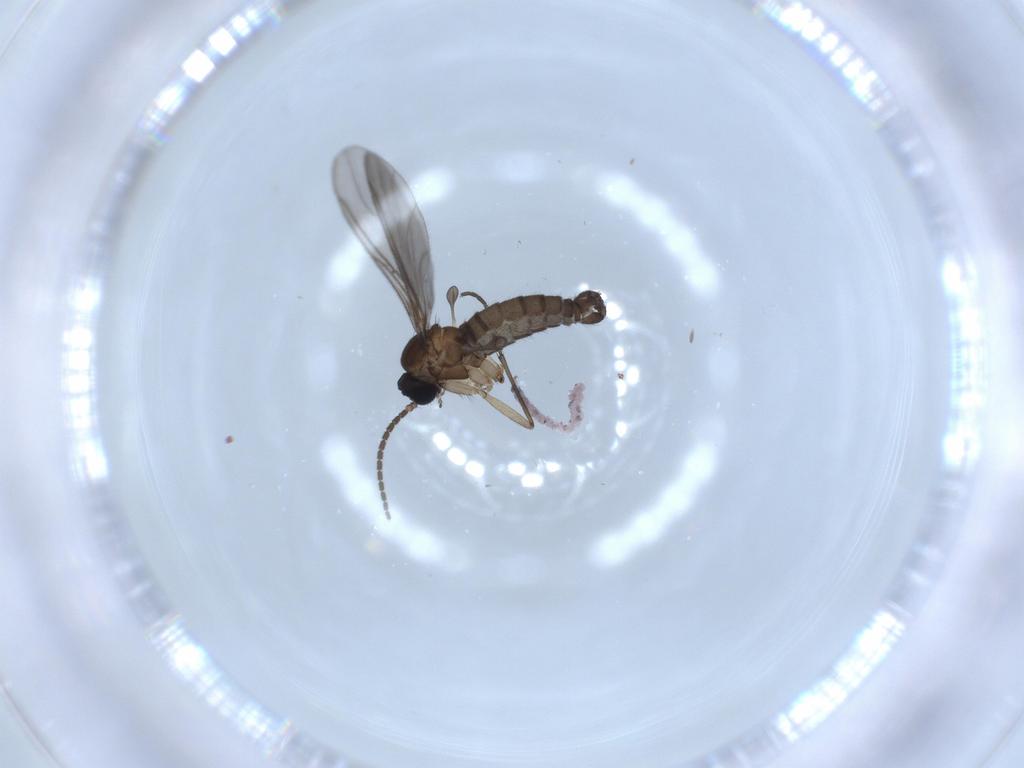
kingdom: Animalia
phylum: Arthropoda
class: Insecta
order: Diptera
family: Sciaridae
